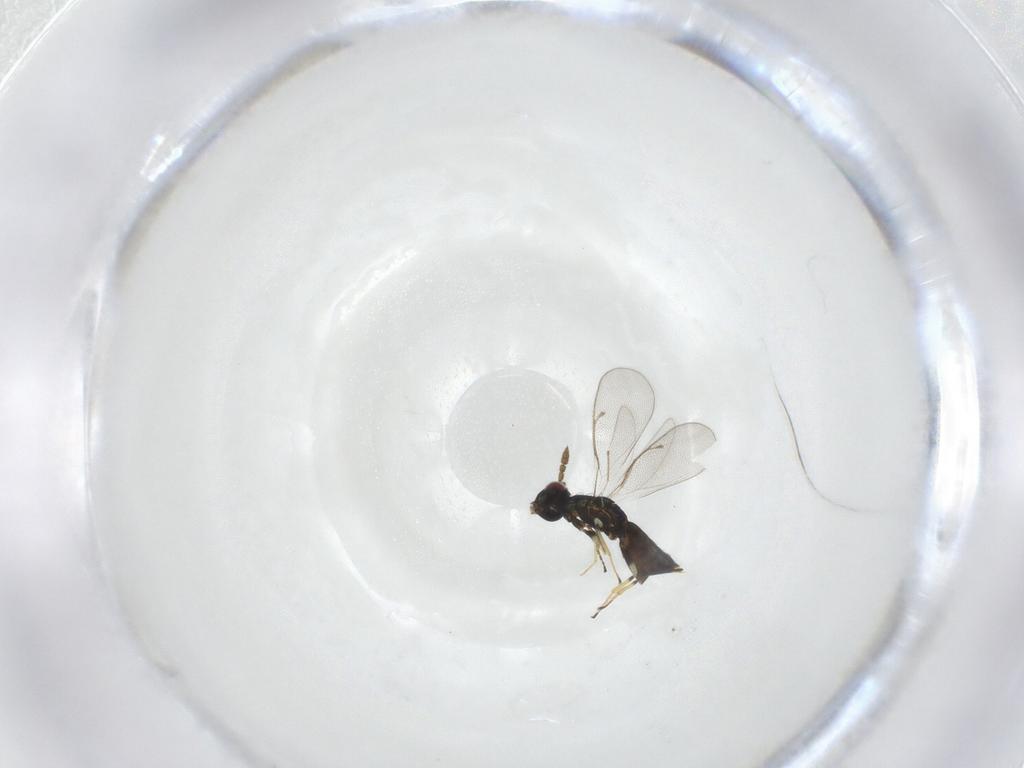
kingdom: Animalia
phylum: Arthropoda
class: Insecta
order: Hymenoptera
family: Eulophidae
